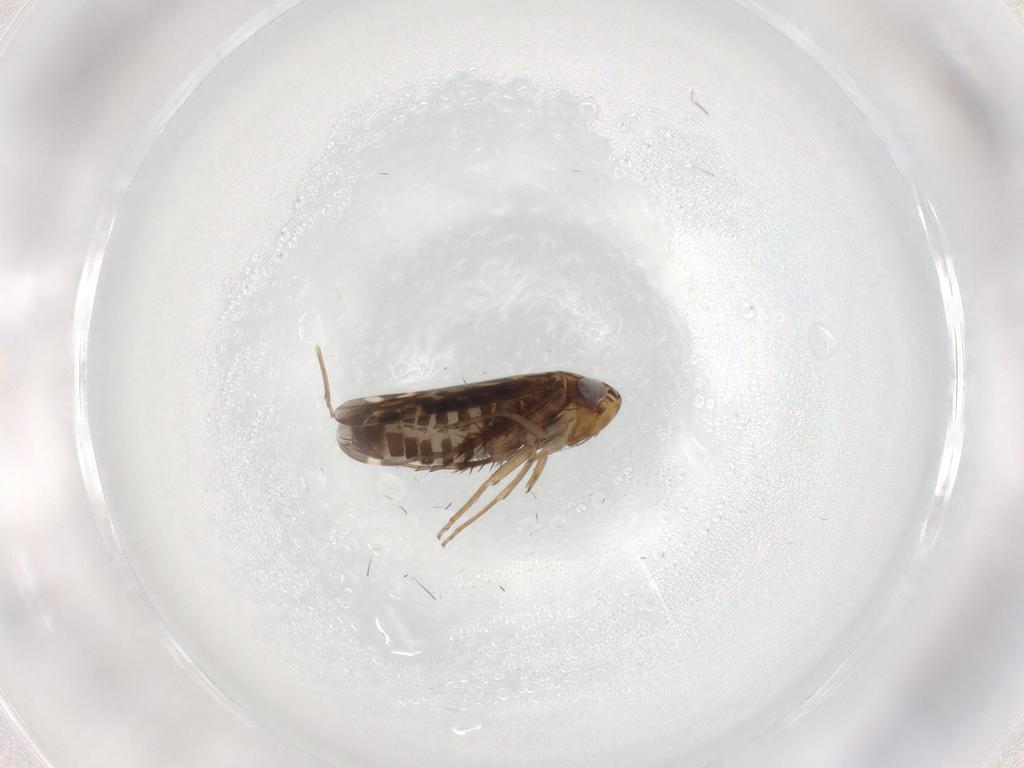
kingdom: Animalia
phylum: Arthropoda
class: Insecta
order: Hemiptera
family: Cicadellidae
